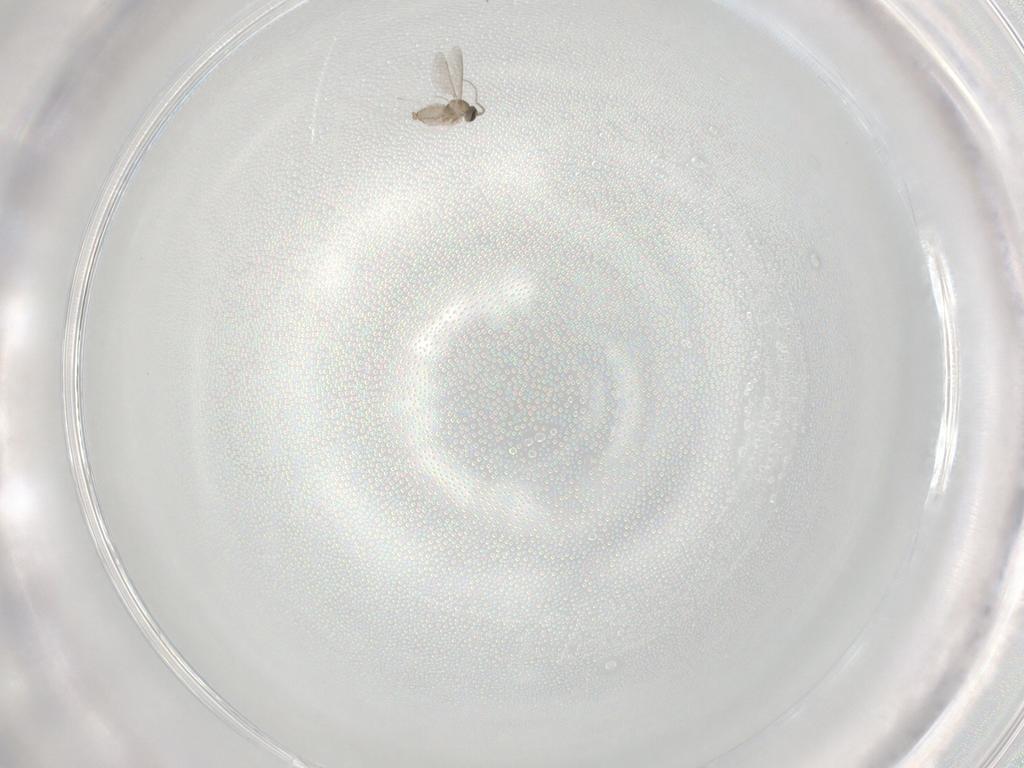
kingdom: Animalia
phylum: Arthropoda
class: Insecta
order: Diptera
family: Cecidomyiidae
